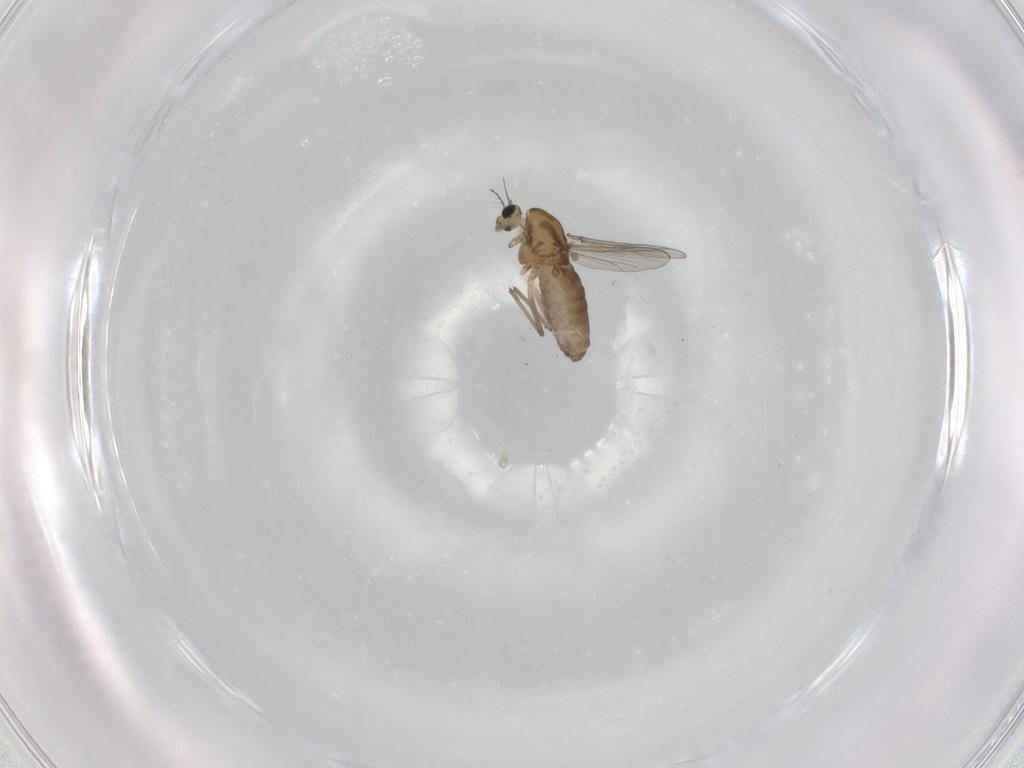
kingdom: Animalia
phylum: Arthropoda
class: Insecta
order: Diptera
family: Chironomidae
